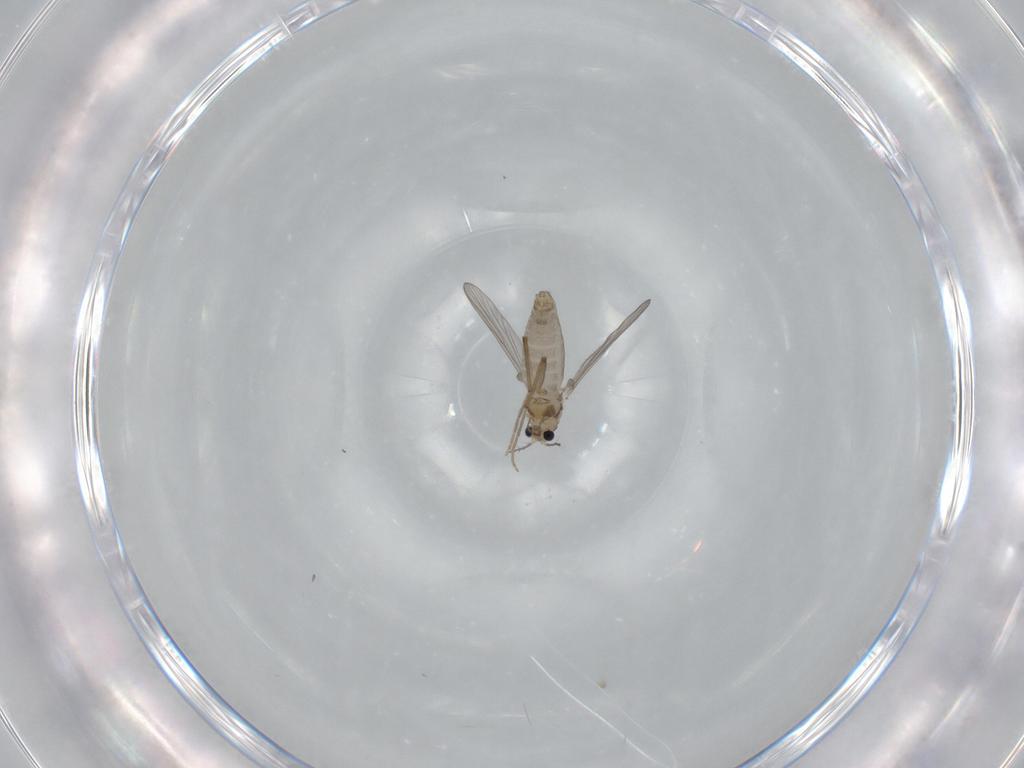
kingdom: Animalia
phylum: Arthropoda
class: Insecta
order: Diptera
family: Chironomidae
